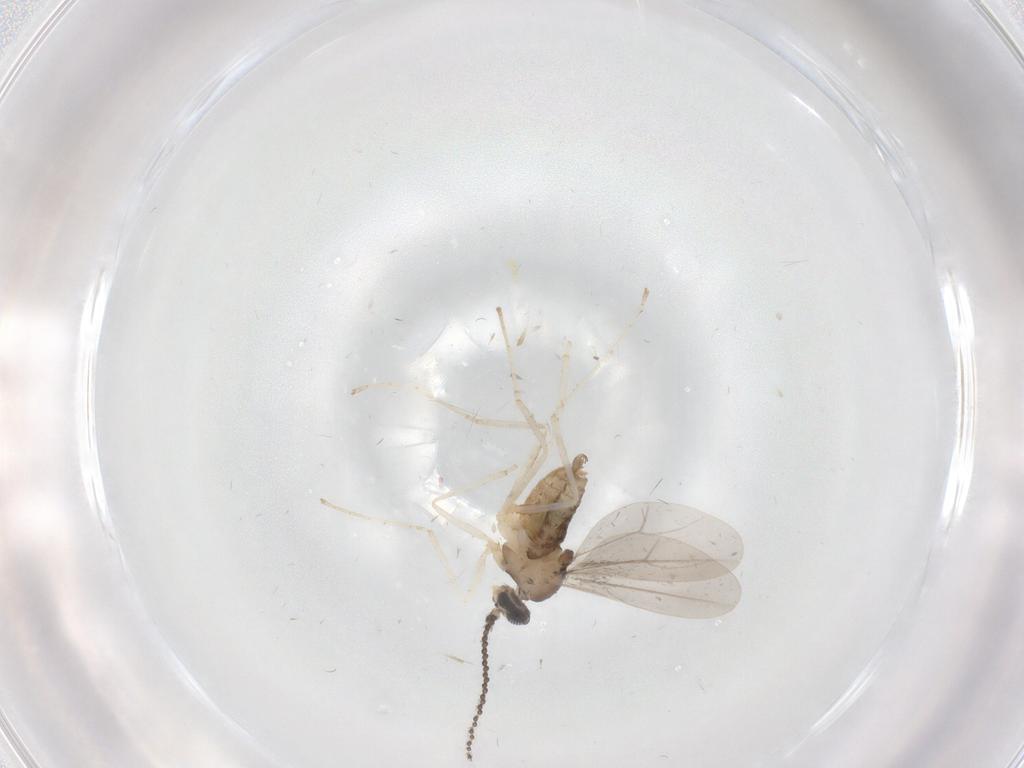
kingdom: Animalia
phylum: Arthropoda
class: Insecta
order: Diptera
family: Cecidomyiidae
